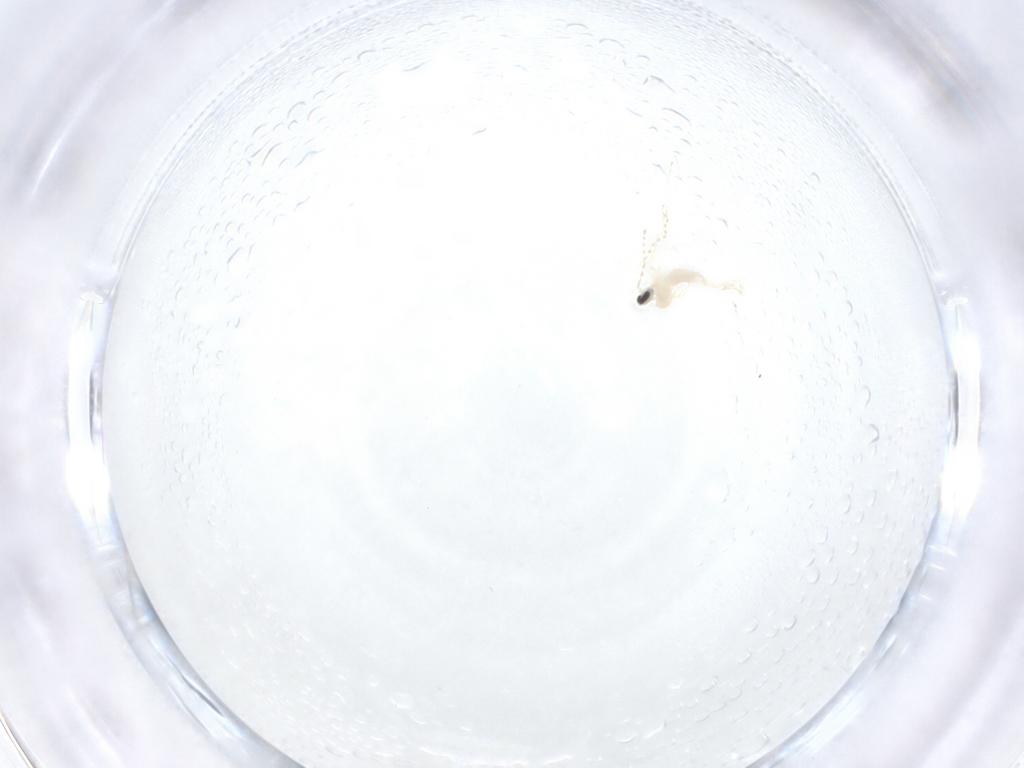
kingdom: Animalia
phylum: Arthropoda
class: Insecta
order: Diptera
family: Cecidomyiidae
